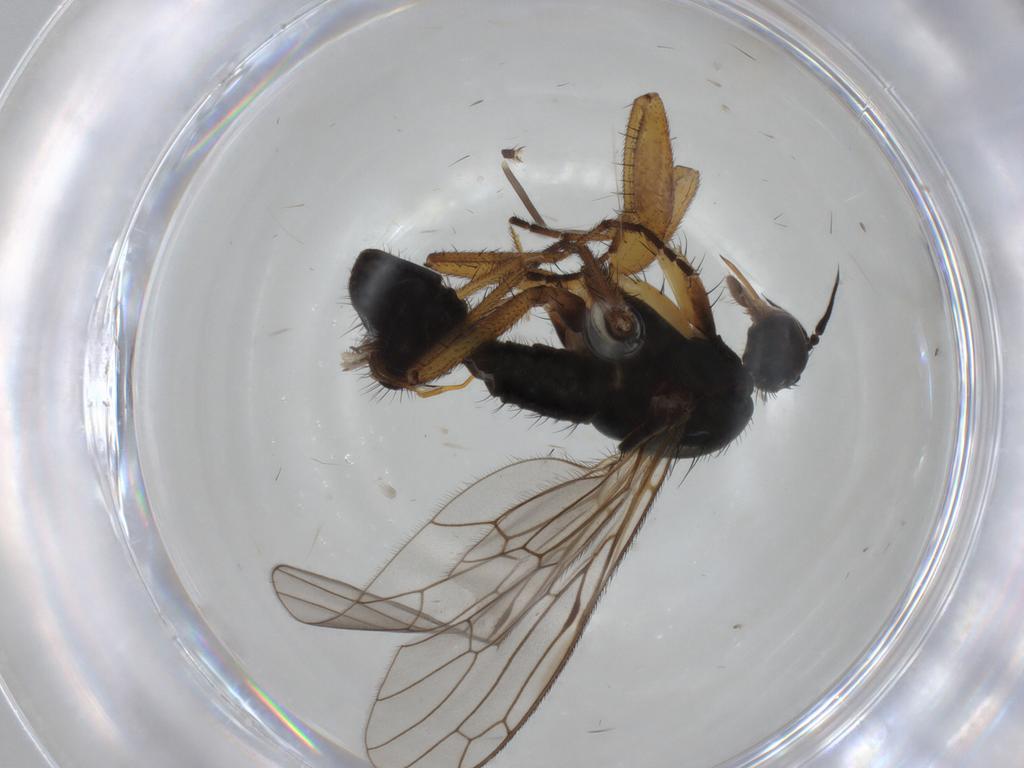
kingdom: Animalia
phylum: Arthropoda
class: Insecta
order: Diptera
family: Empididae
